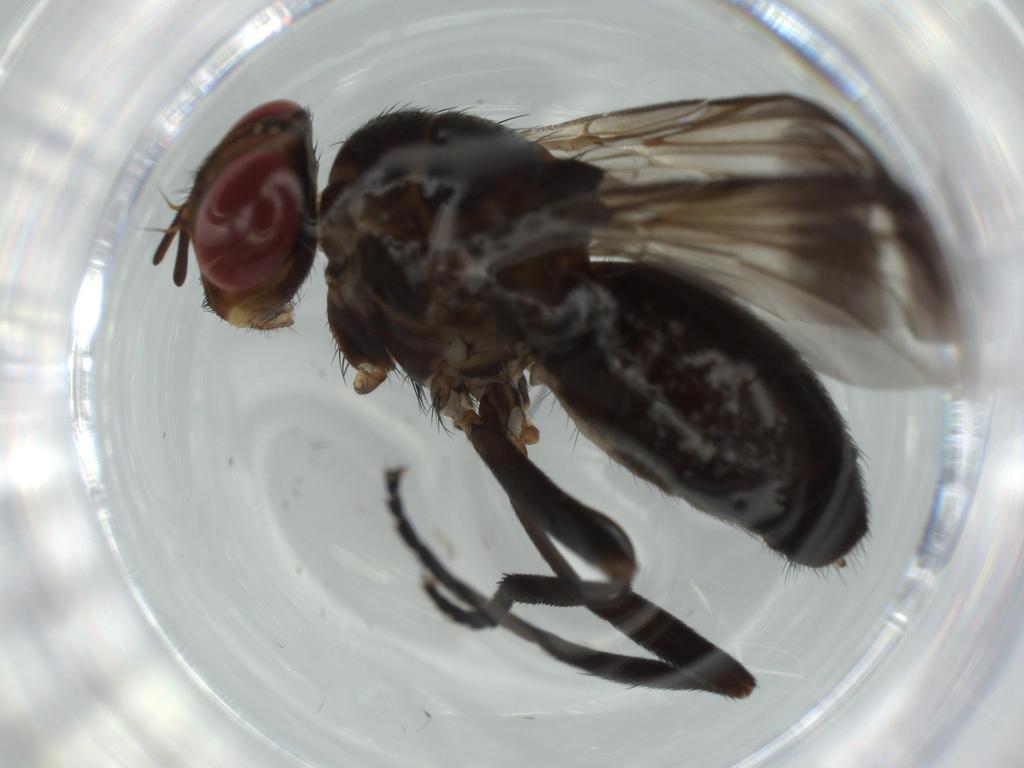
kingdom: Animalia
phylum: Arthropoda
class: Insecta
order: Diptera
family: Calliphoridae
